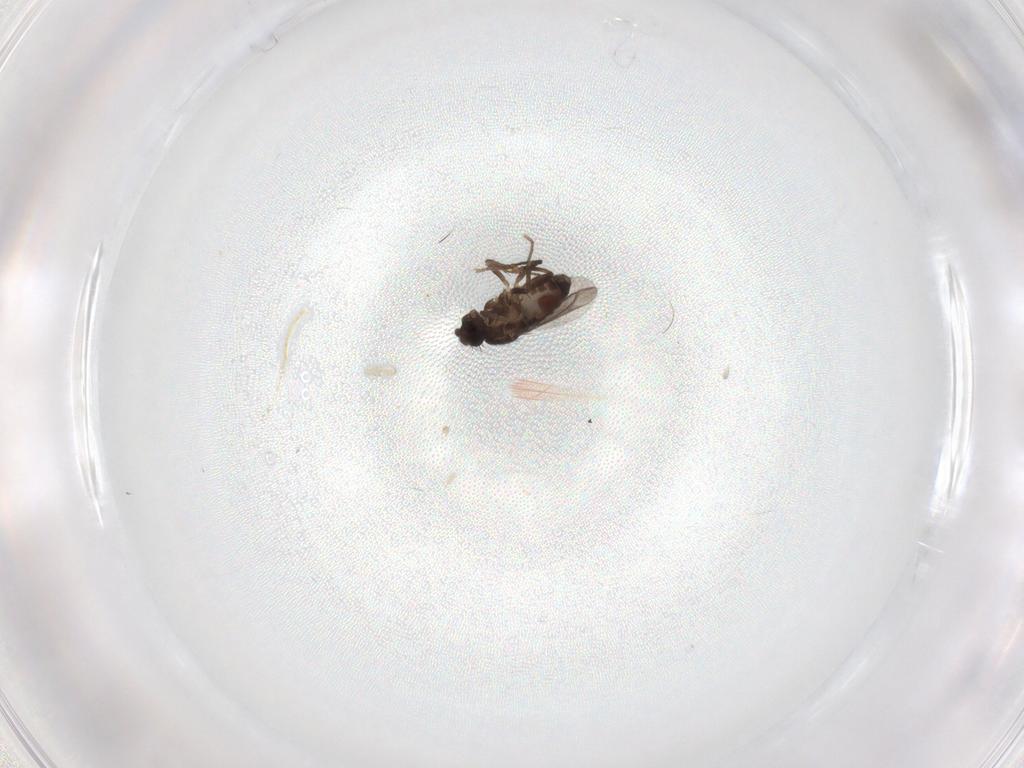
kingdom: Animalia
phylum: Arthropoda
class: Insecta
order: Diptera
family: Sphaeroceridae
